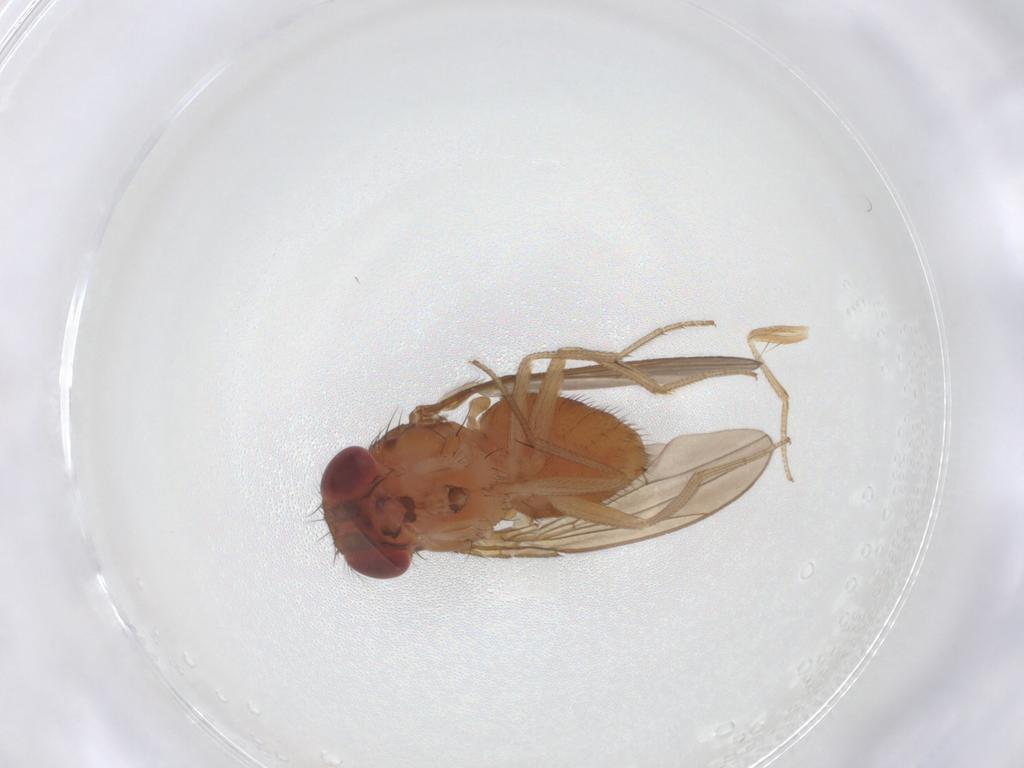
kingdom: Animalia
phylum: Arthropoda
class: Insecta
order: Diptera
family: Drosophilidae
